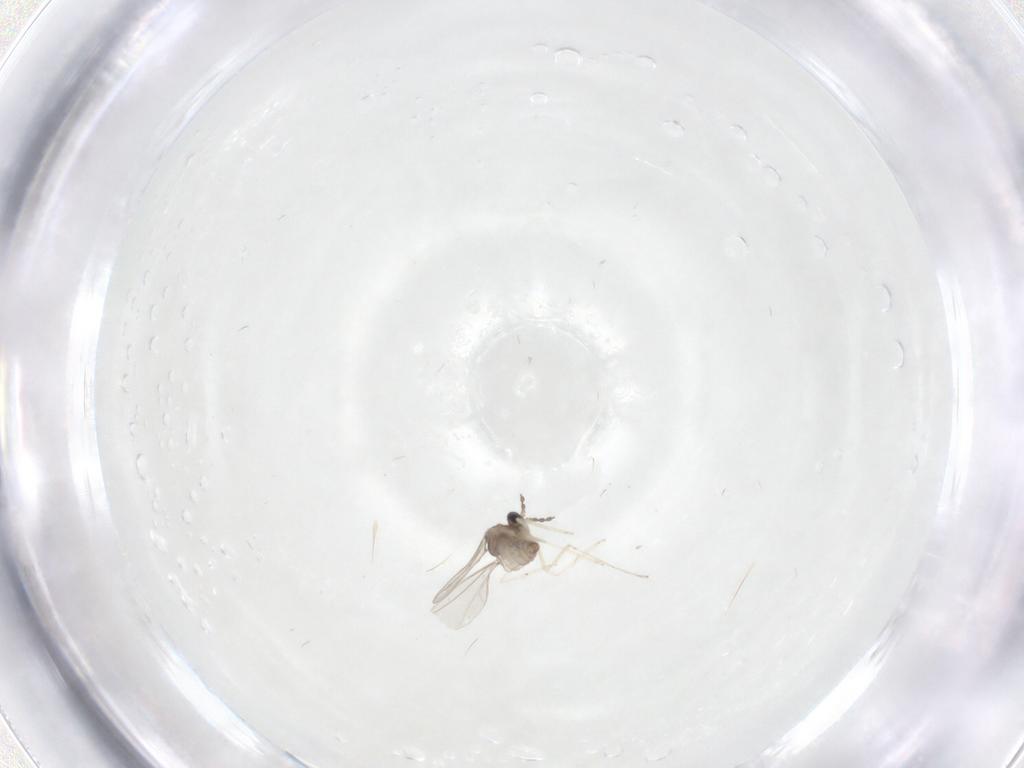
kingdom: Animalia
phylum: Arthropoda
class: Insecta
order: Diptera
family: Cecidomyiidae
